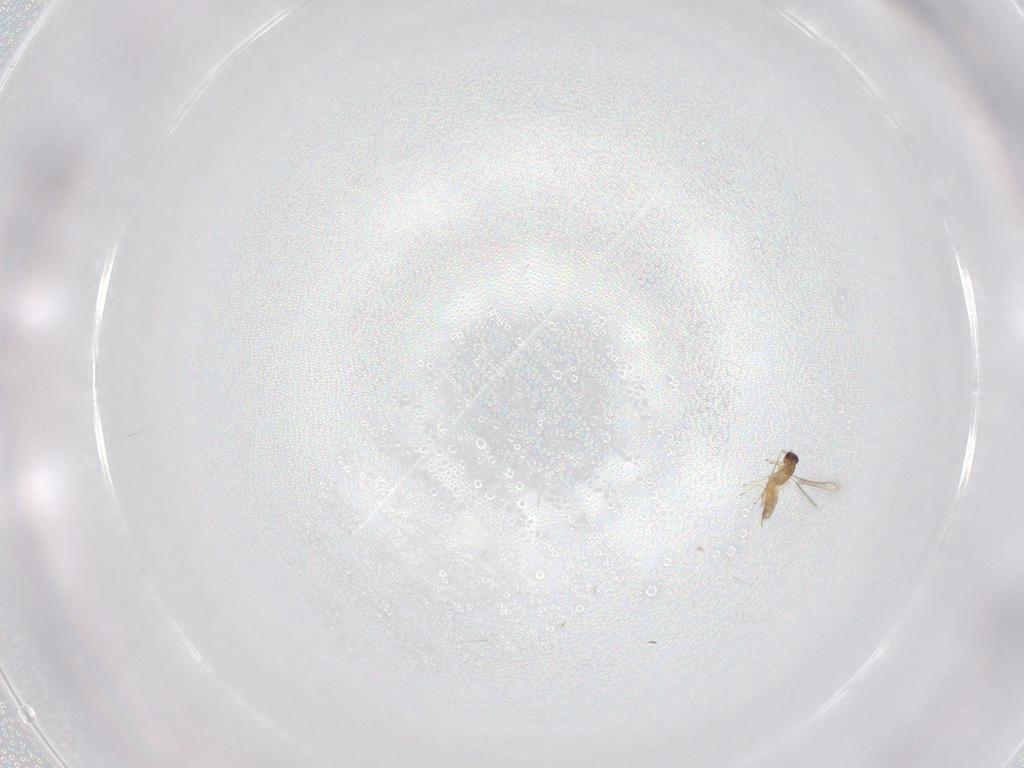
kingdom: Animalia
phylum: Arthropoda
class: Insecta
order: Hymenoptera
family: Mymaridae
